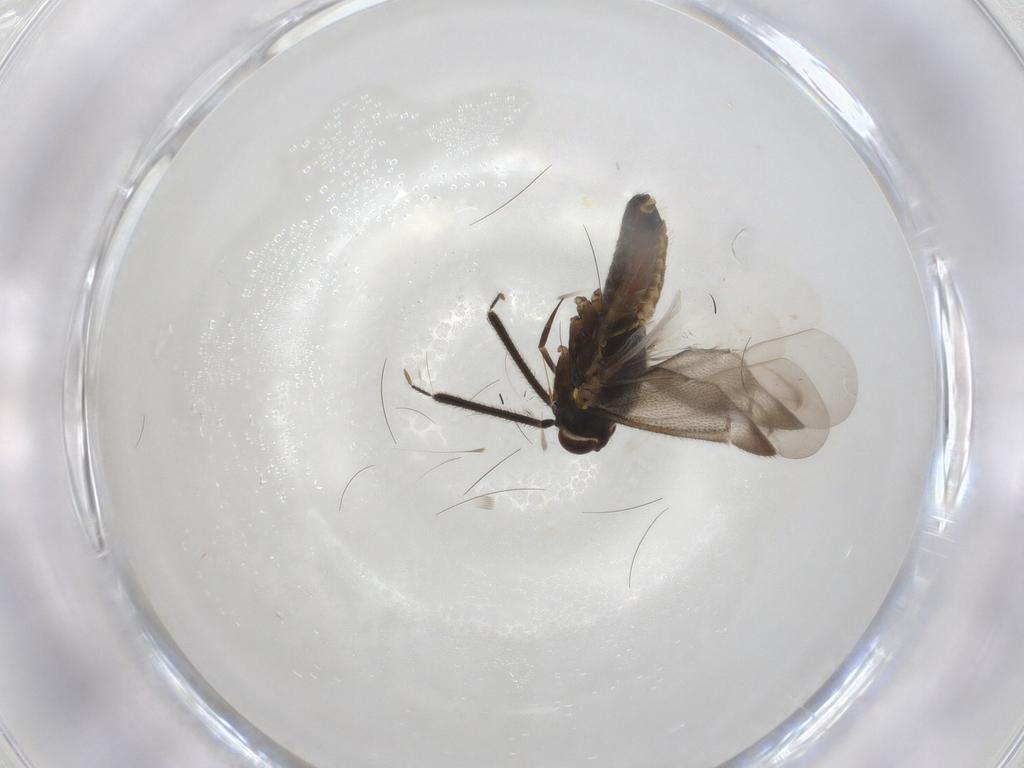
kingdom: Animalia
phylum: Arthropoda
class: Insecta
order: Hemiptera
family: Miridae
